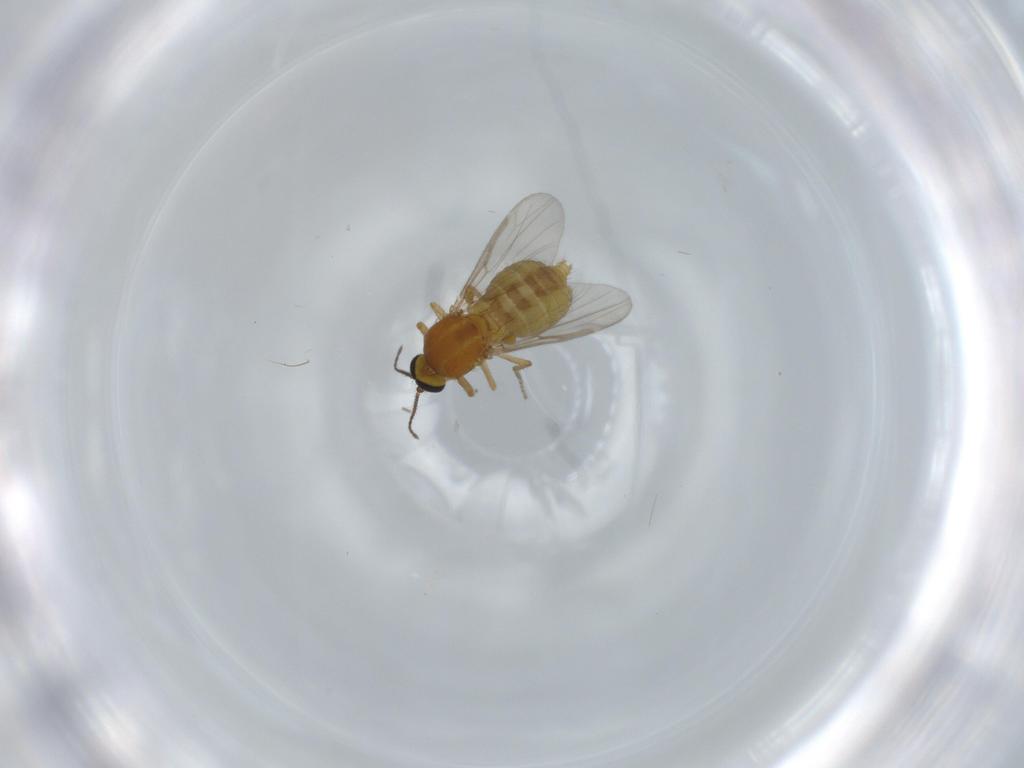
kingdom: Animalia
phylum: Arthropoda
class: Insecta
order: Diptera
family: Ceratopogonidae
